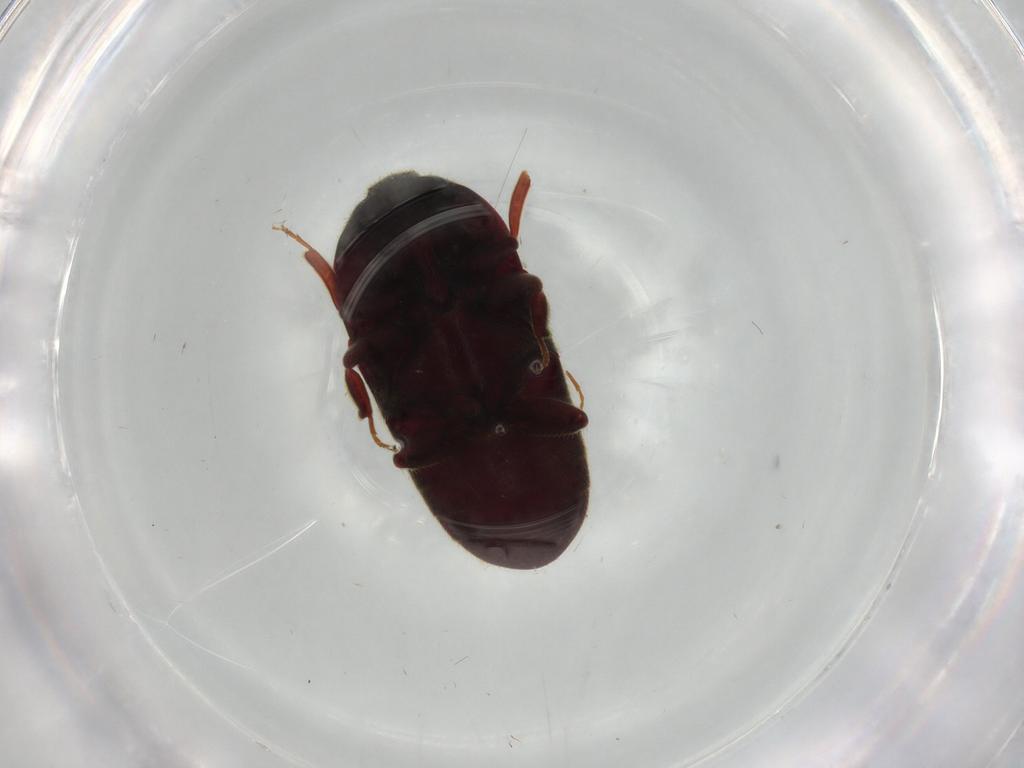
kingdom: Animalia
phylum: Arthropoda
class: Insecta
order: Coleoptera
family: Throscidae
